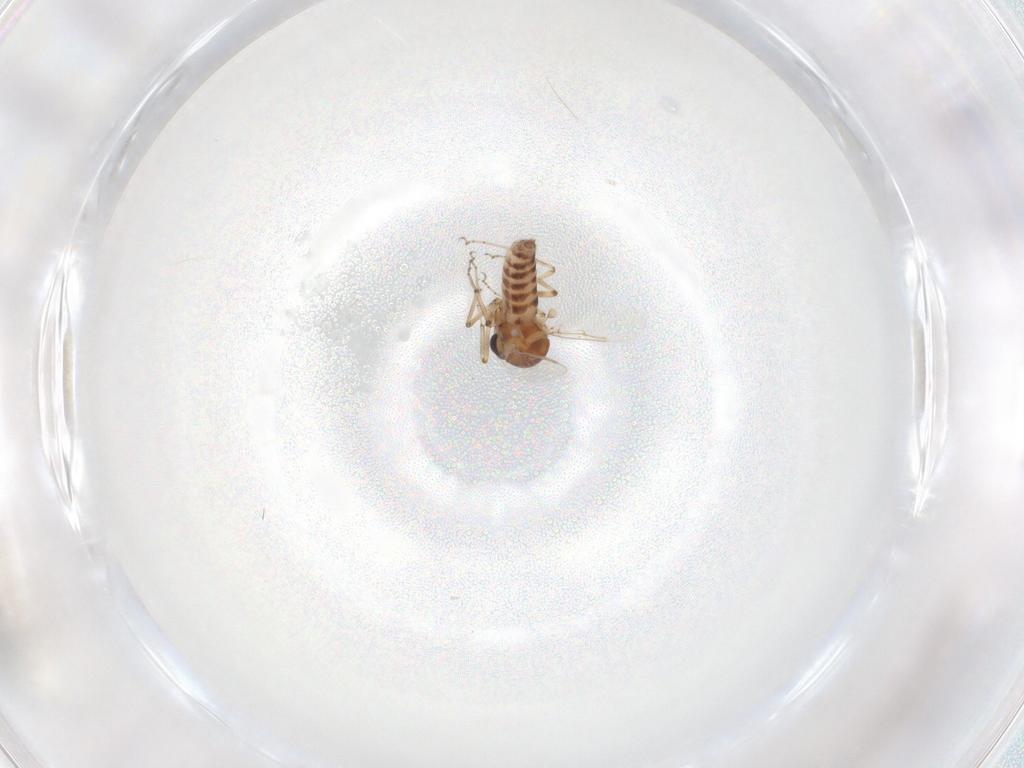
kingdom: Animalia
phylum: Arthropoda
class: Insecta
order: Diptera
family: Ceratopogonidae
